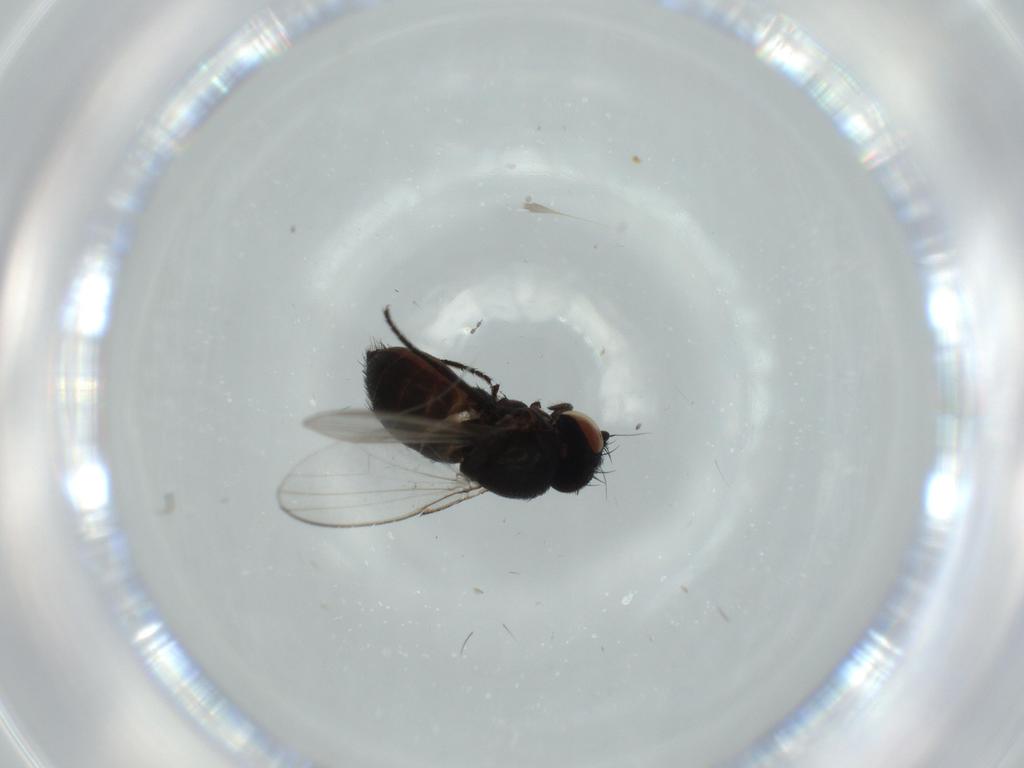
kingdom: Animalia
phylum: Arthropoda
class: Insecta
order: Diptera
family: Milichiidae
